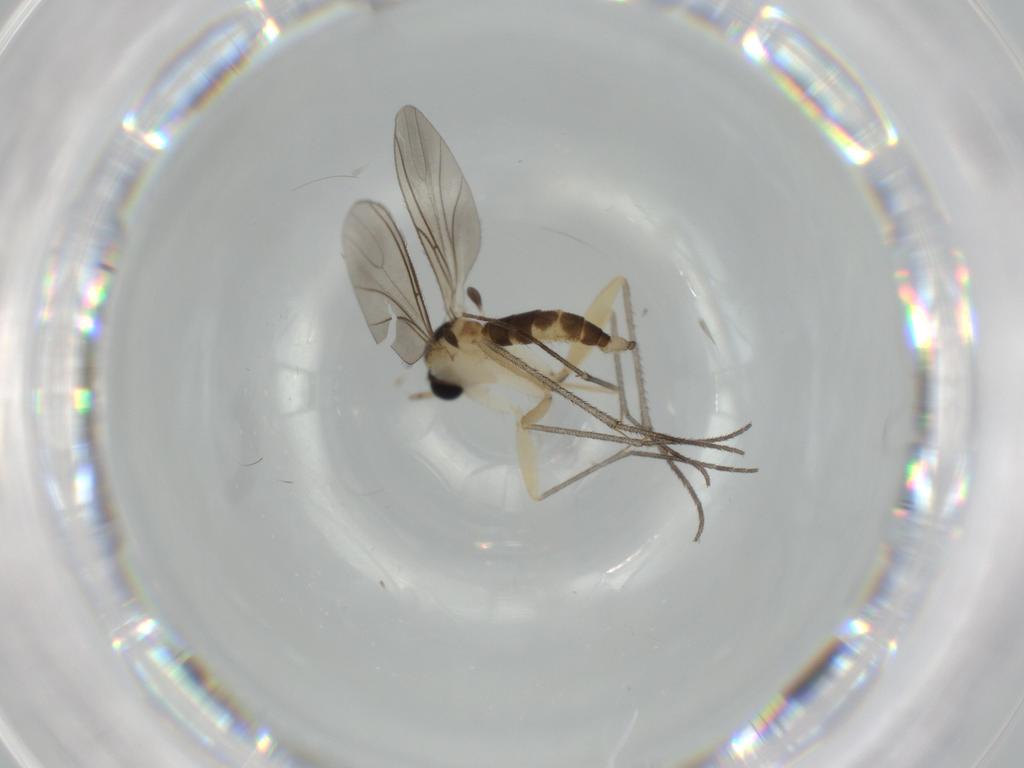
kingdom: Animalia
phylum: Arthropoda
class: Insecta
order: Diptera
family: Sciaridae
